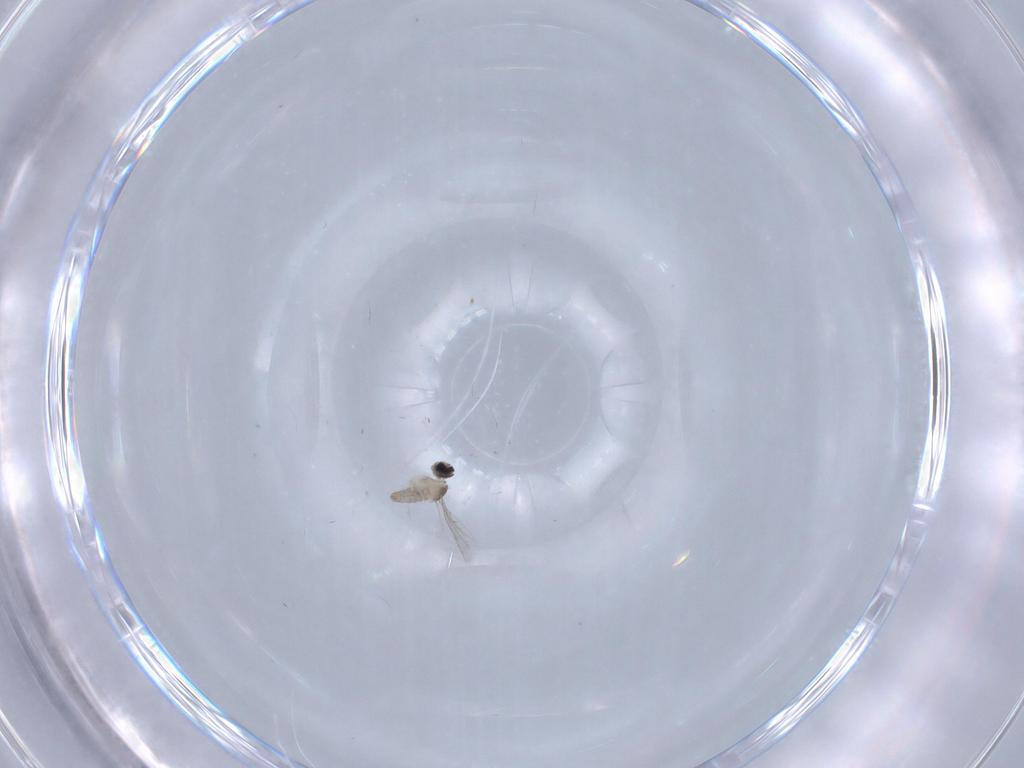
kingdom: Animalia
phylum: Arthropoda
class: Insecta
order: Diptera
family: Cecidomyiidae
